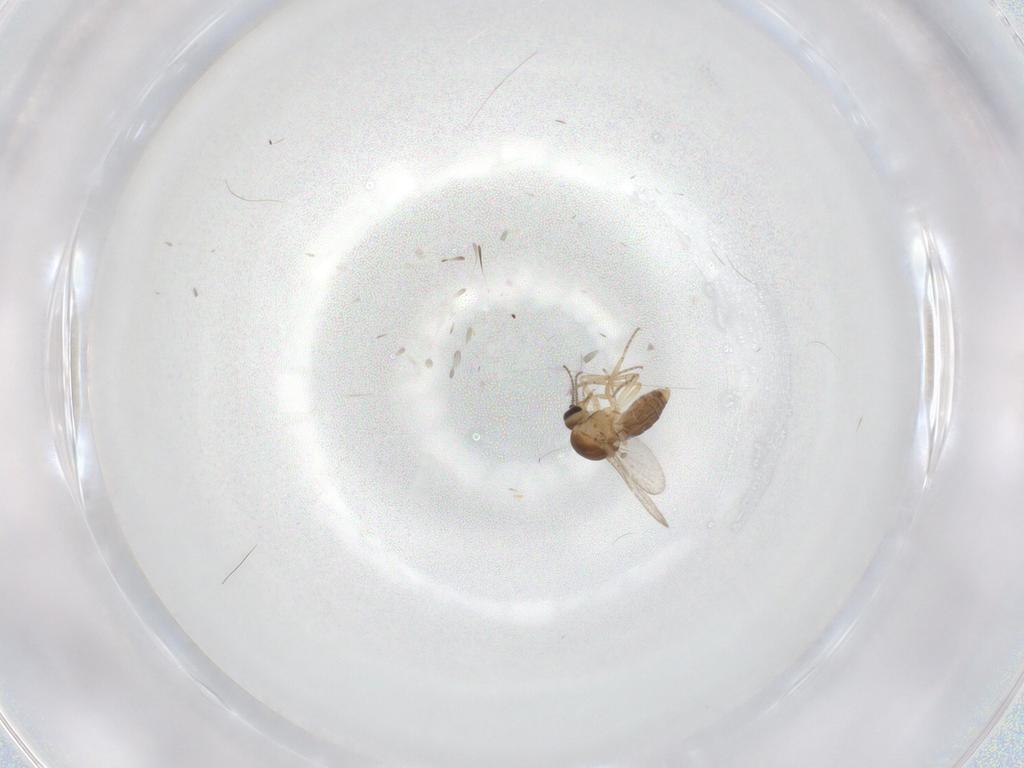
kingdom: Animalia
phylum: Arthropoda
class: Insecta
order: Diptera
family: Ceratopogonidae
